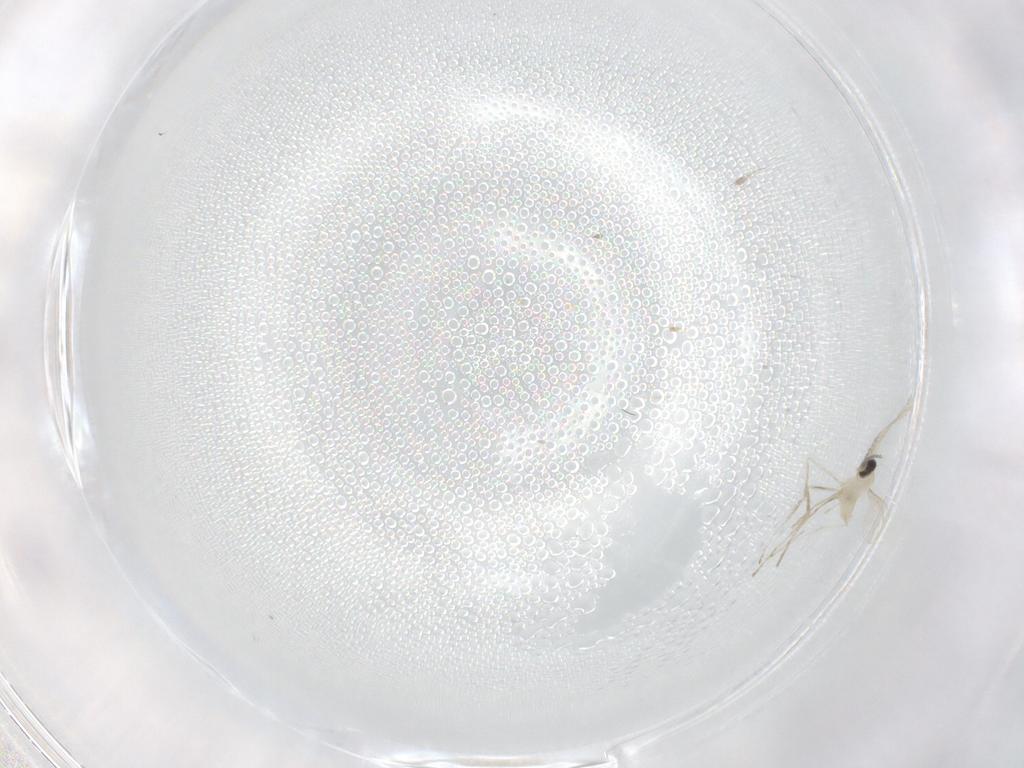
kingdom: Animalia
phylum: Arthropoda
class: Insecta
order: Diptera
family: Cecidomyiidae
